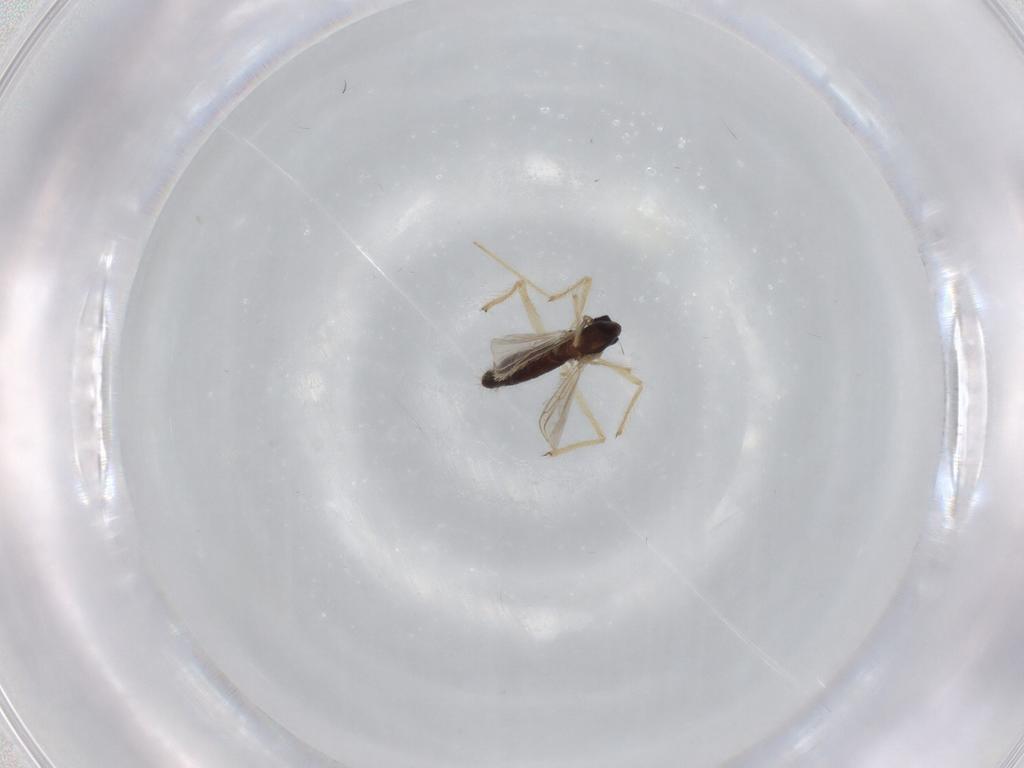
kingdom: Animalia
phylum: Arthropoda
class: Insecta
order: Diptera
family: Chironomidae
